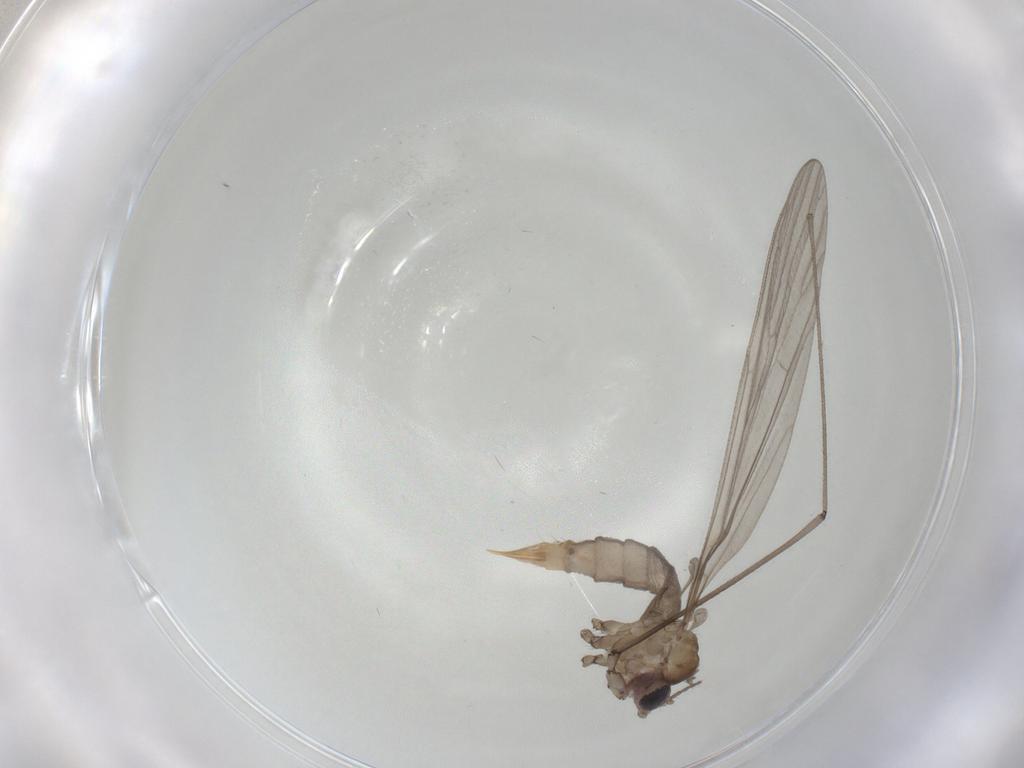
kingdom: Animalia
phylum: Arthropoda
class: Insecta
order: Diptera
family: Limoniidae
